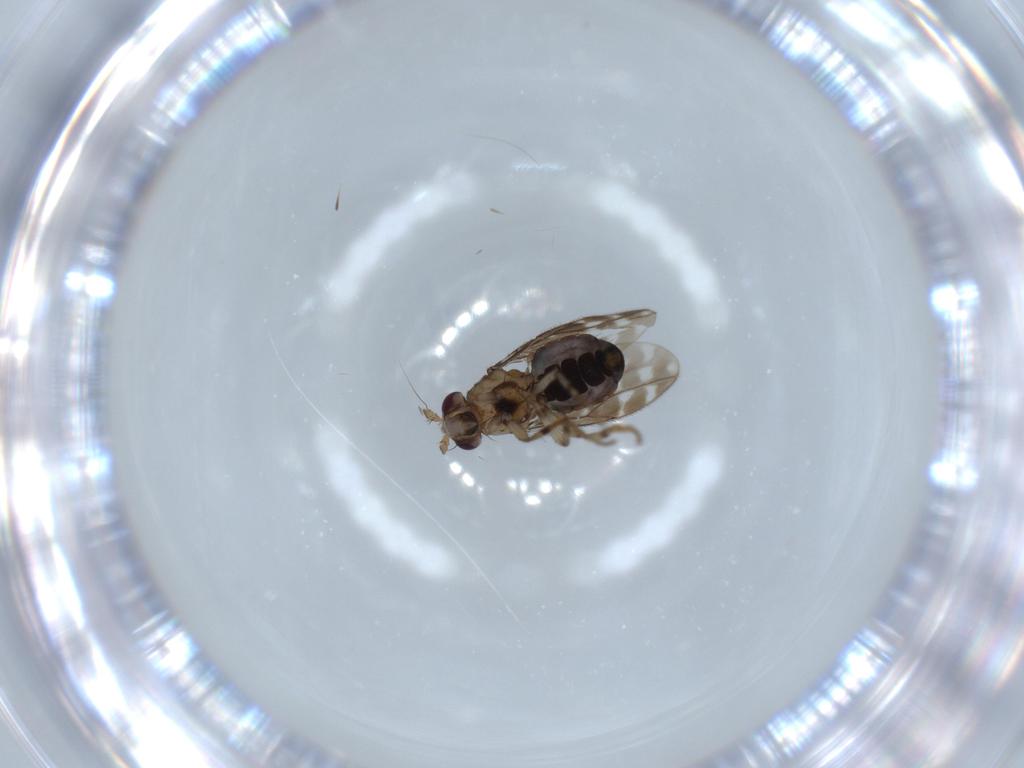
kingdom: Animalia
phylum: Arthropoda
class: Insecta
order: Diptera
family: Sphaeroceridae
